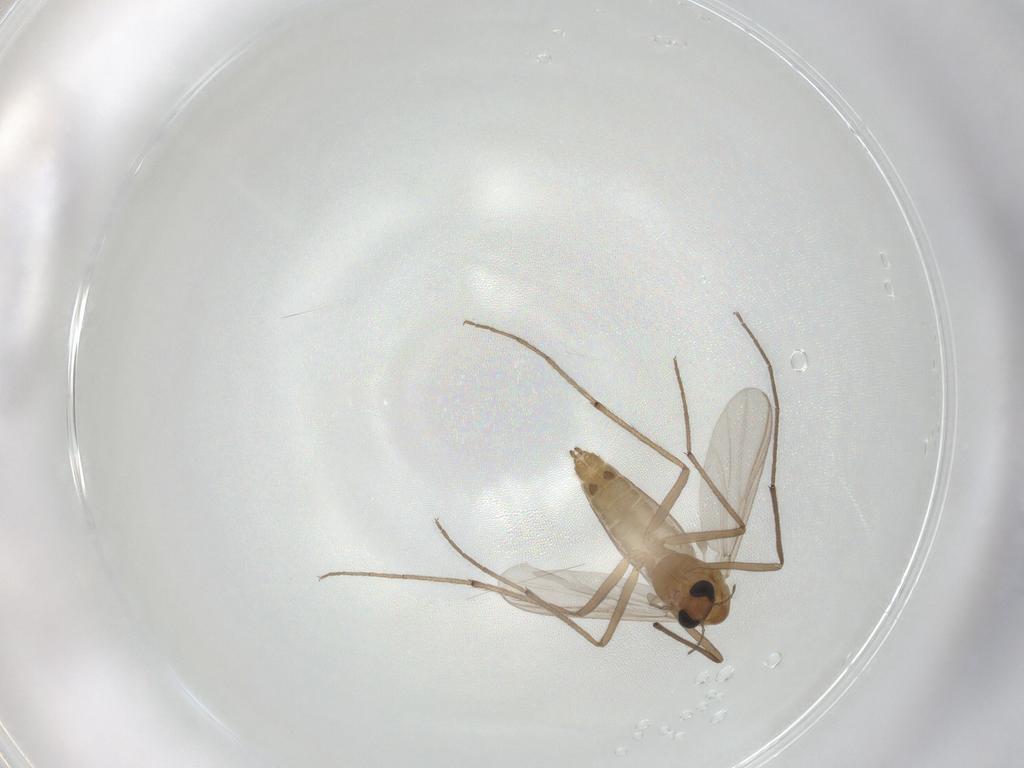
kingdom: Animalia
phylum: Arthropoda
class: Insecta
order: Diptera
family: Chironomidae
